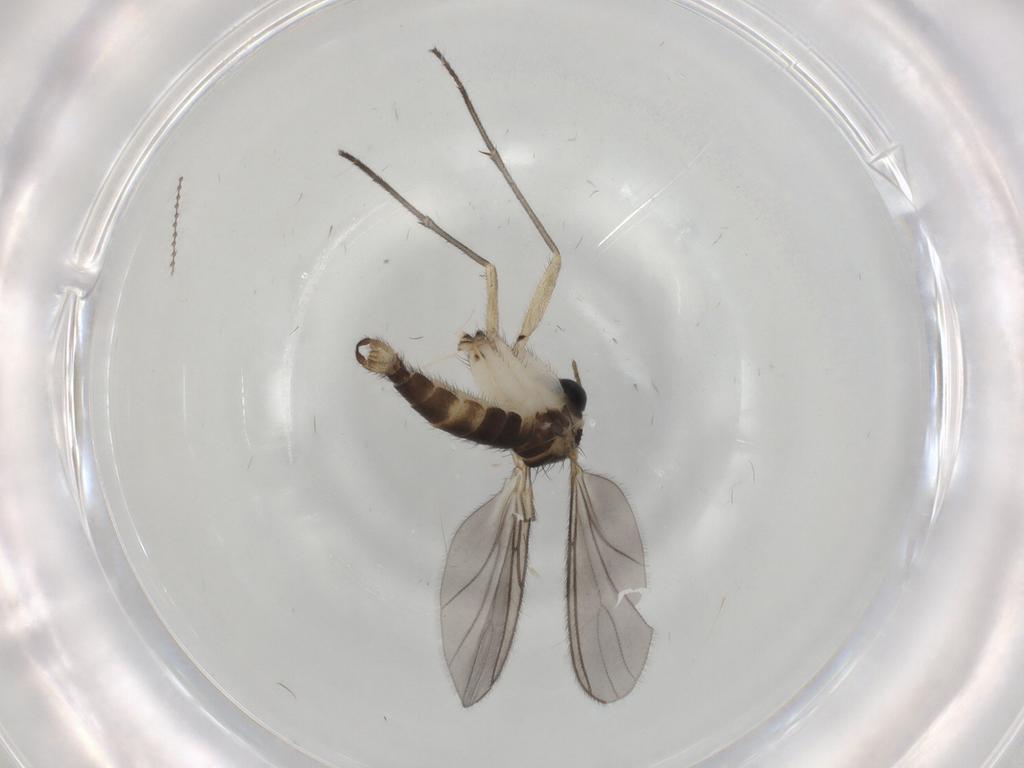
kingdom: Animalia
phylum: Arthropoda
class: Insecta
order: Diptera
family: Sciaridae
